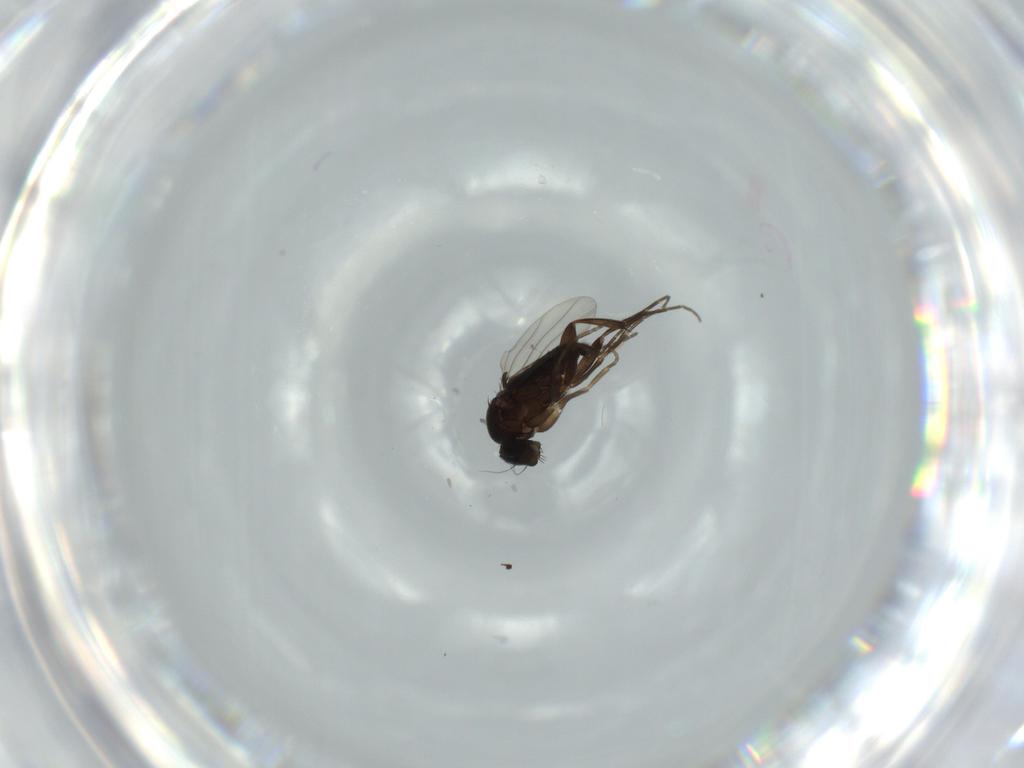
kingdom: Animalia
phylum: Arthropoda
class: Insecta
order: Diptera
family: Phoridae
